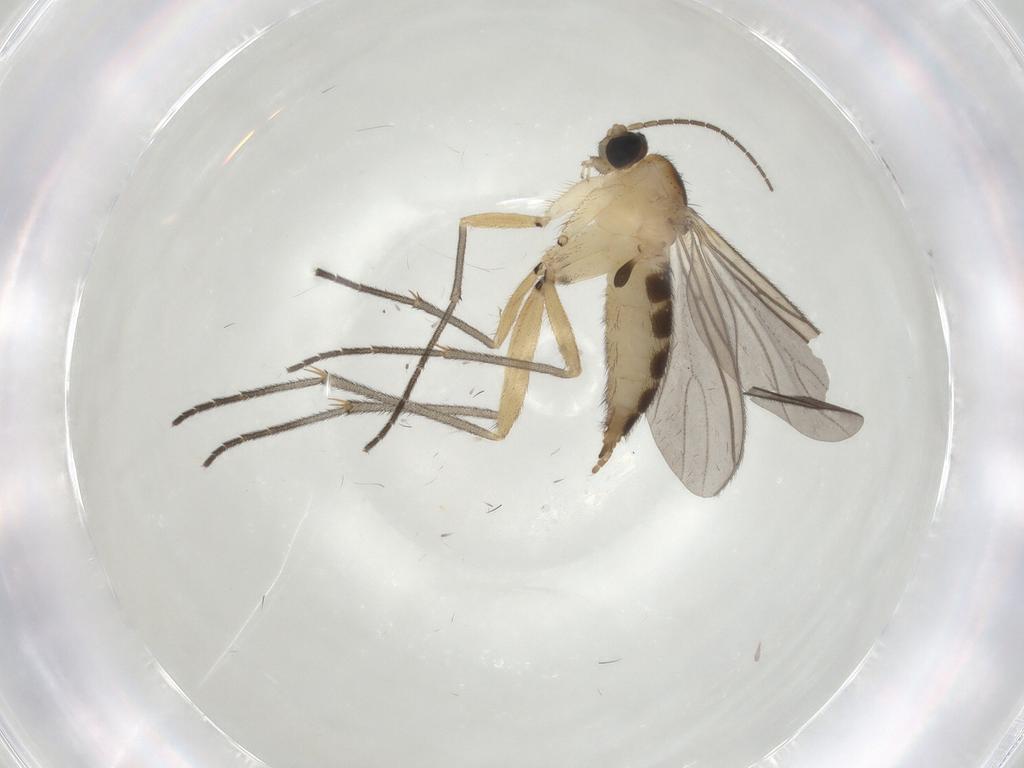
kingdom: Animalia
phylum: Arthropoda
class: Insecta
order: Diptera
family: Sciaridae
